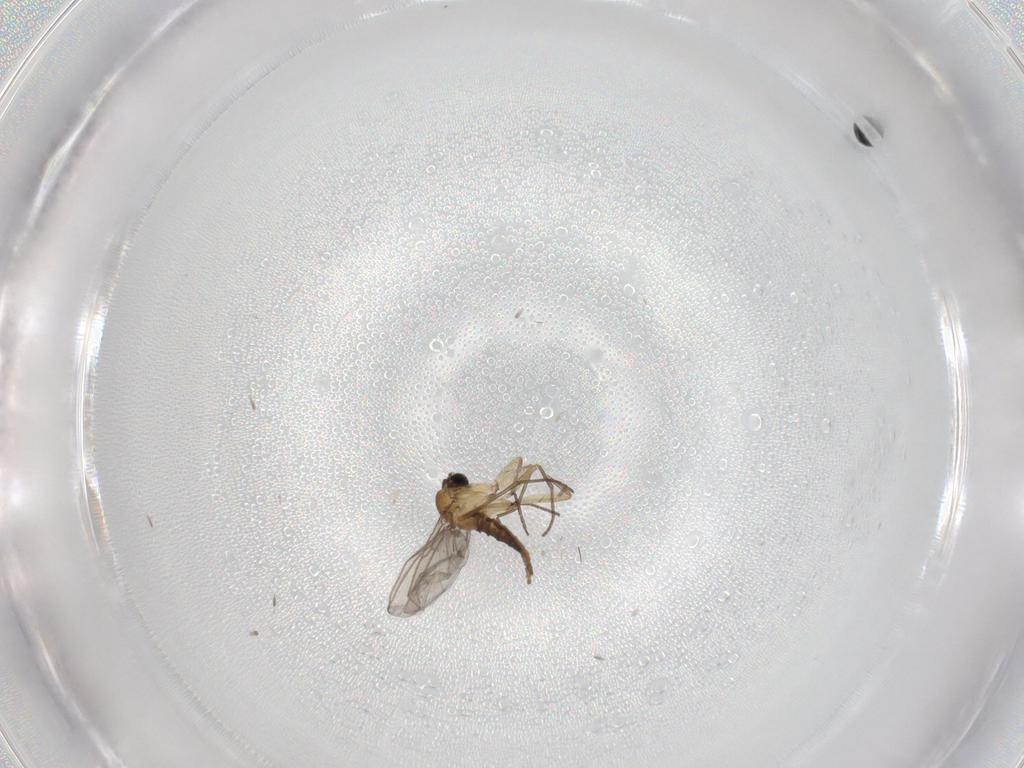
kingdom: Animalia
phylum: Arthropoda
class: Insecta
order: Diptera
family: Sciaridae
